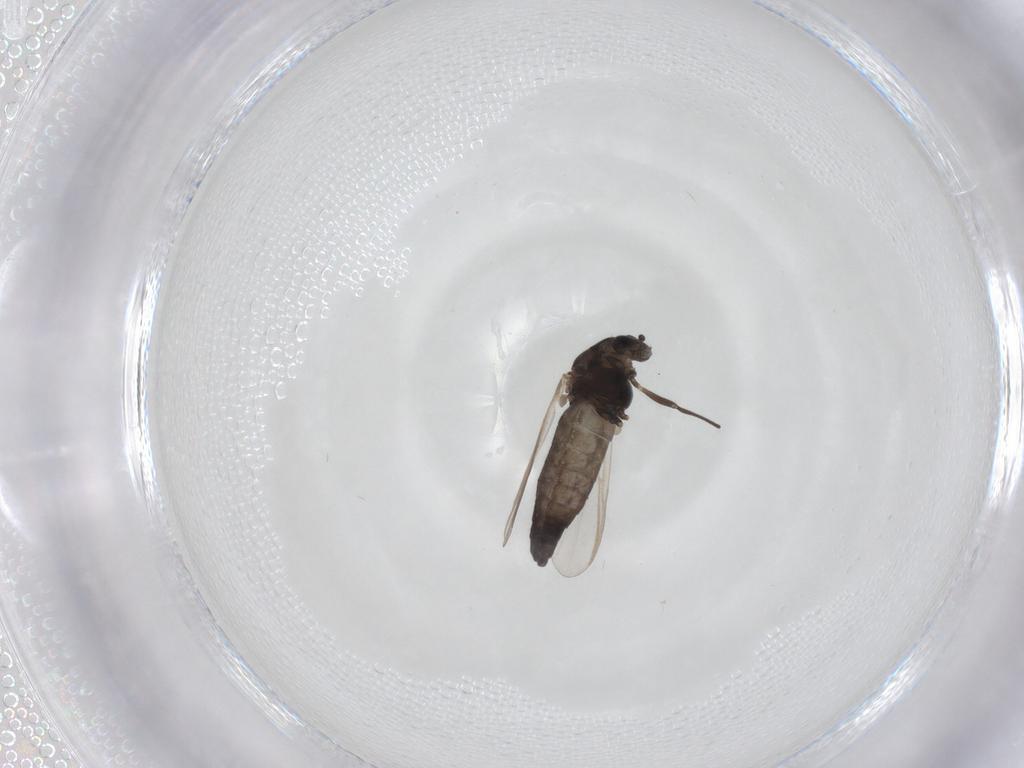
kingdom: Animalia
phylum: Arthropoda
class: Insecta
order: Diptera
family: Chironomidae
